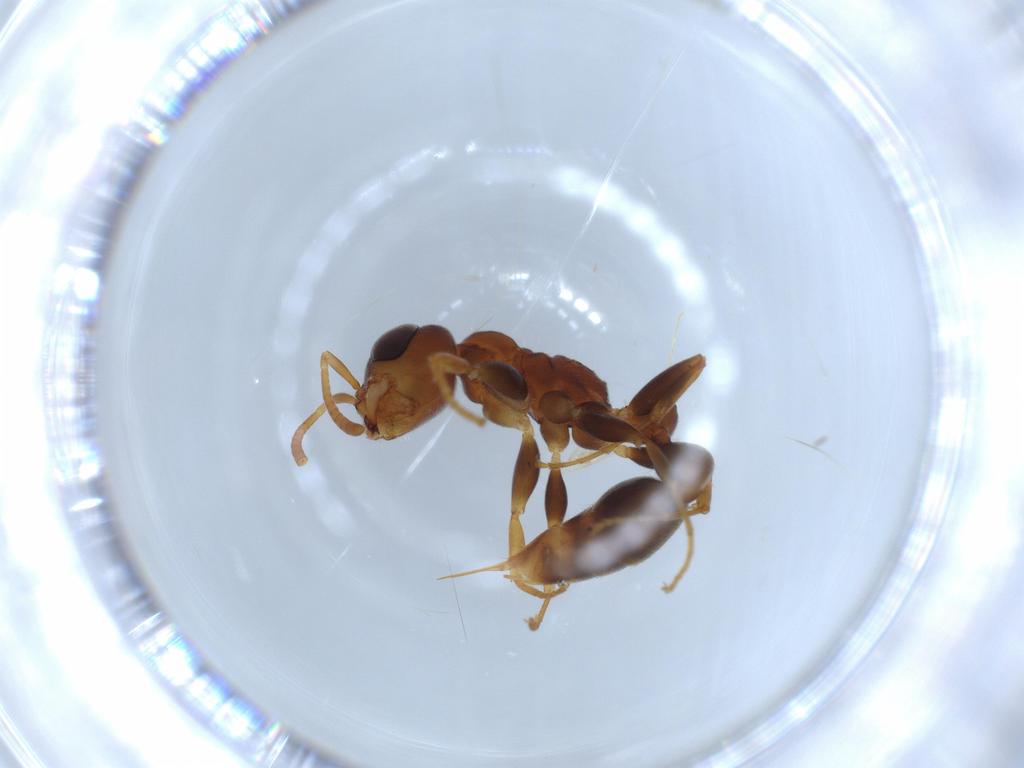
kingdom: Animalia
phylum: Arthropoda
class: Insecta
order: Hymenoptera
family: Formicidae
